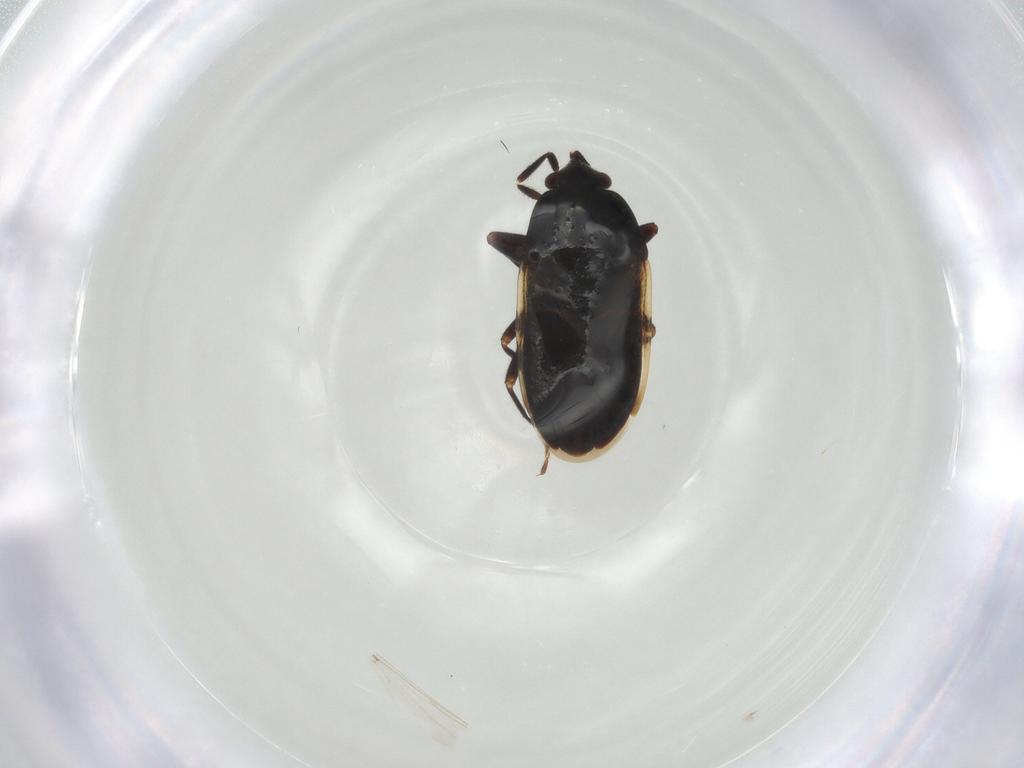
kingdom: Animalia
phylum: Arthropoda
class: Insecta
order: Hemiptera
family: Rhyparochromidae
